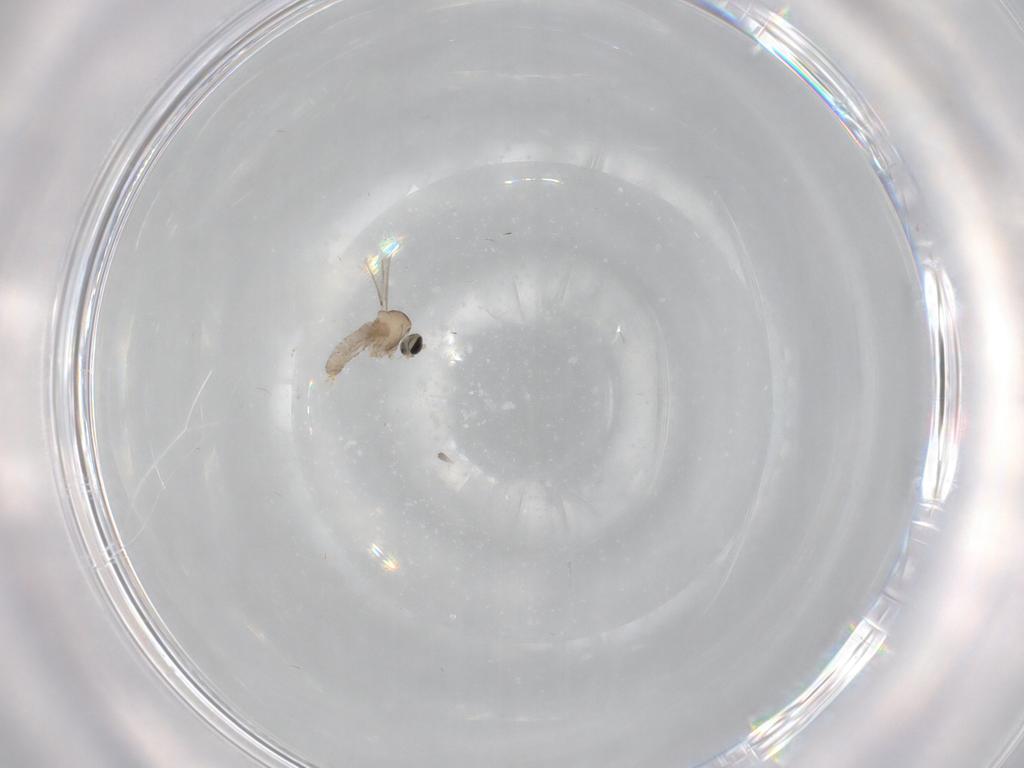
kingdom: Animalia
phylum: Arthropoda
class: Insecta
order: Diptera
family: Cecidomyiidae
